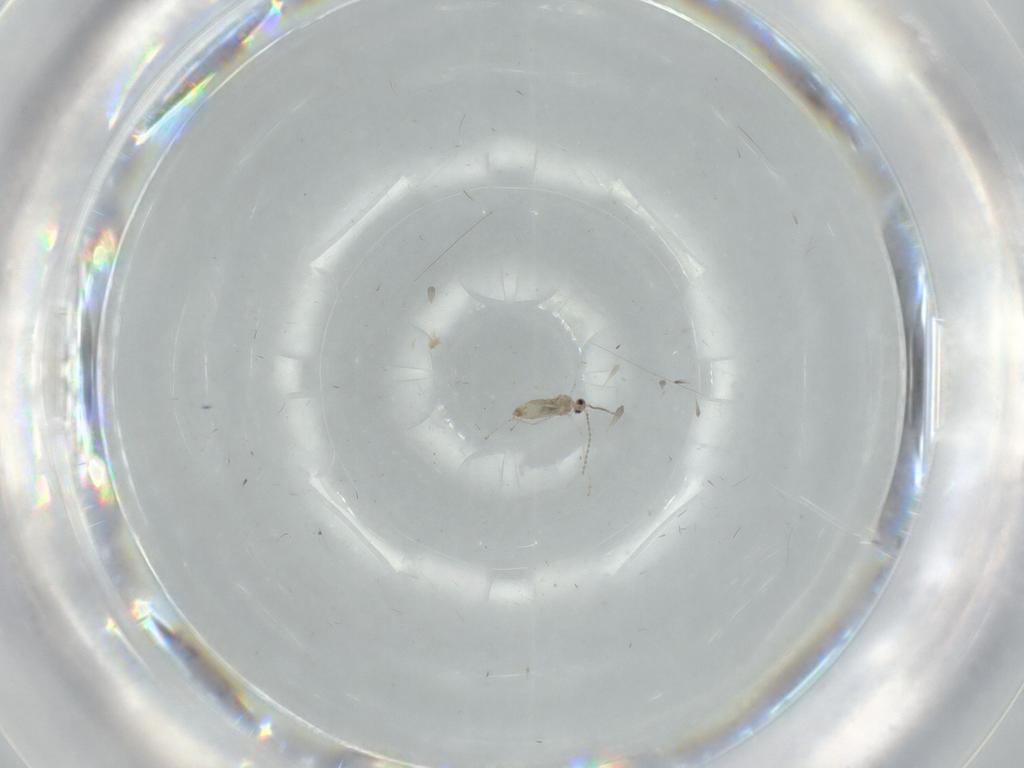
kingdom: Animalia
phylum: Arthropoda
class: Insecta
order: Diptera
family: Cecidomyiidae
